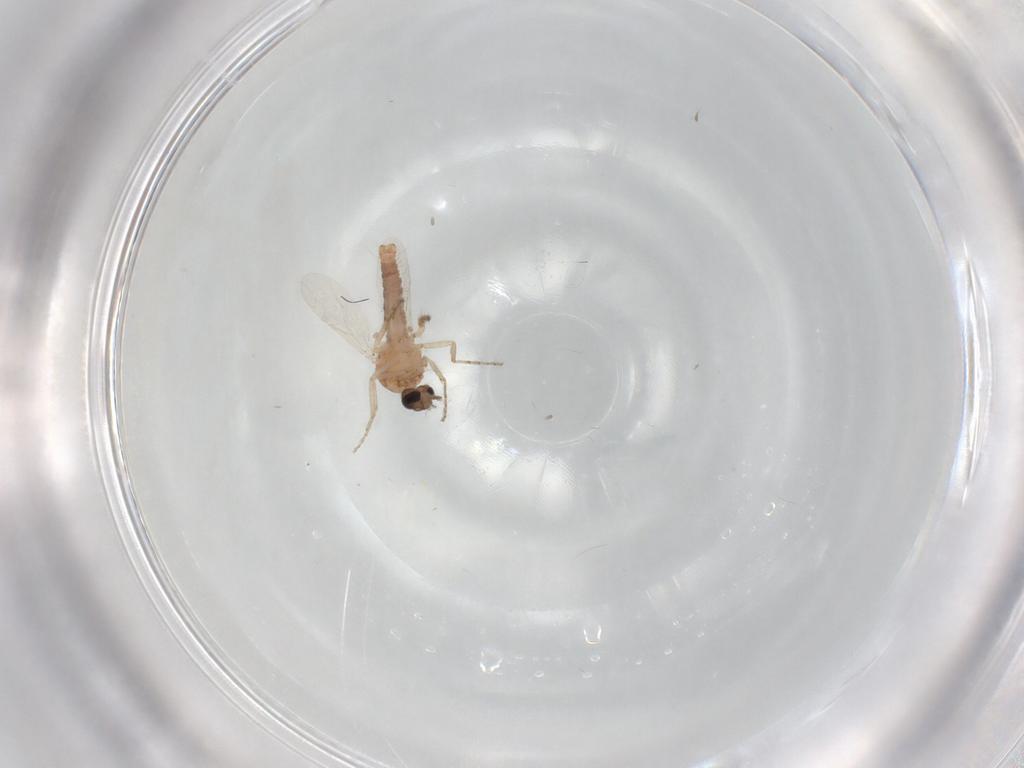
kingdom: Animalia
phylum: Arthropoda
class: Insecta
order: Diptera
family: Ceratopogonidae
